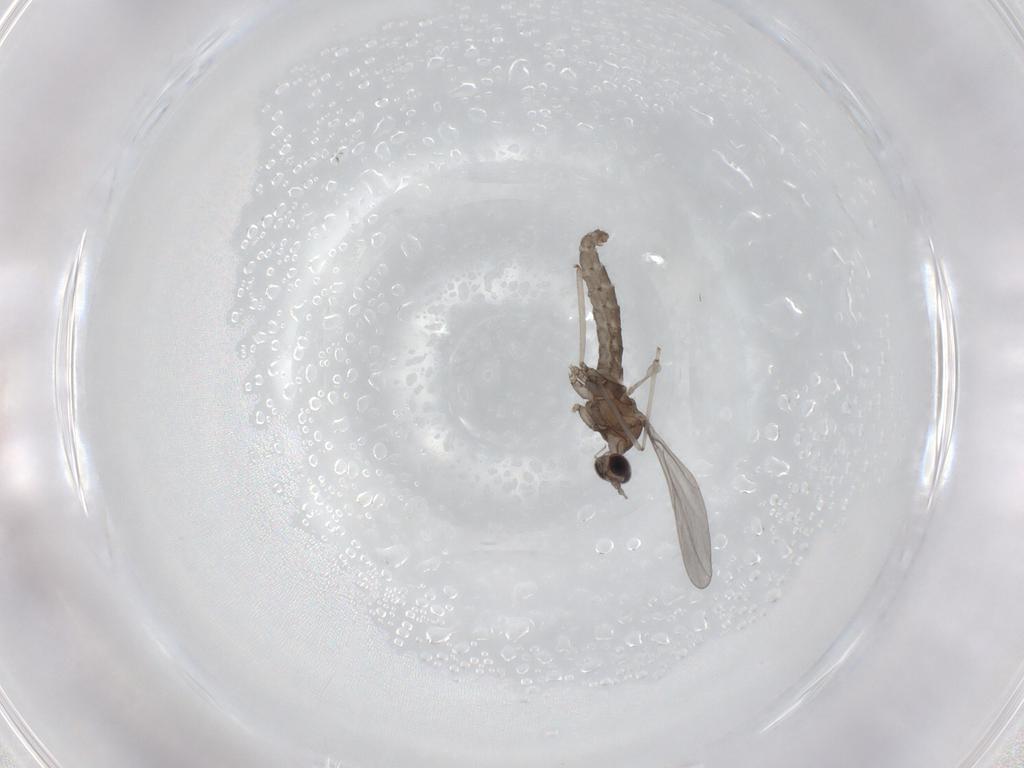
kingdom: Animalia
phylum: Arthropoda
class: Insecta
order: Diptera
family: Cecidomyiidae
